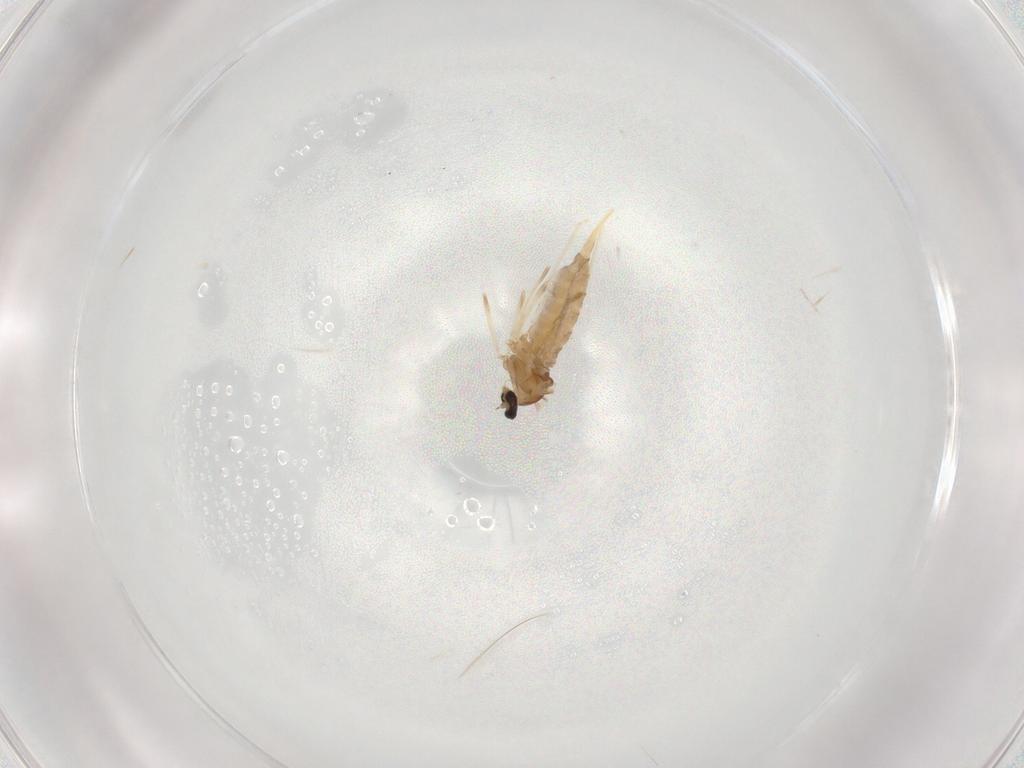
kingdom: Animalia
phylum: Arthropoda
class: Insecta
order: Diptera
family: Cecidomyiidae
